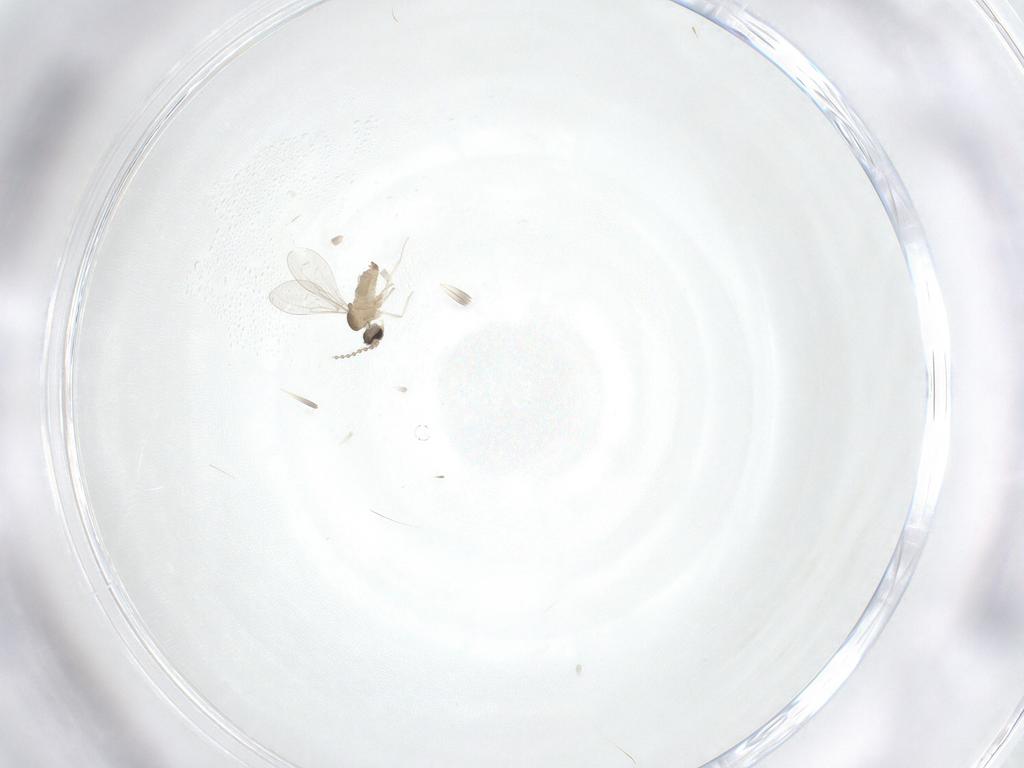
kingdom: Animalia
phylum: Arthropoda
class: Insecta
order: Diptera
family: Cecidomyiidae
